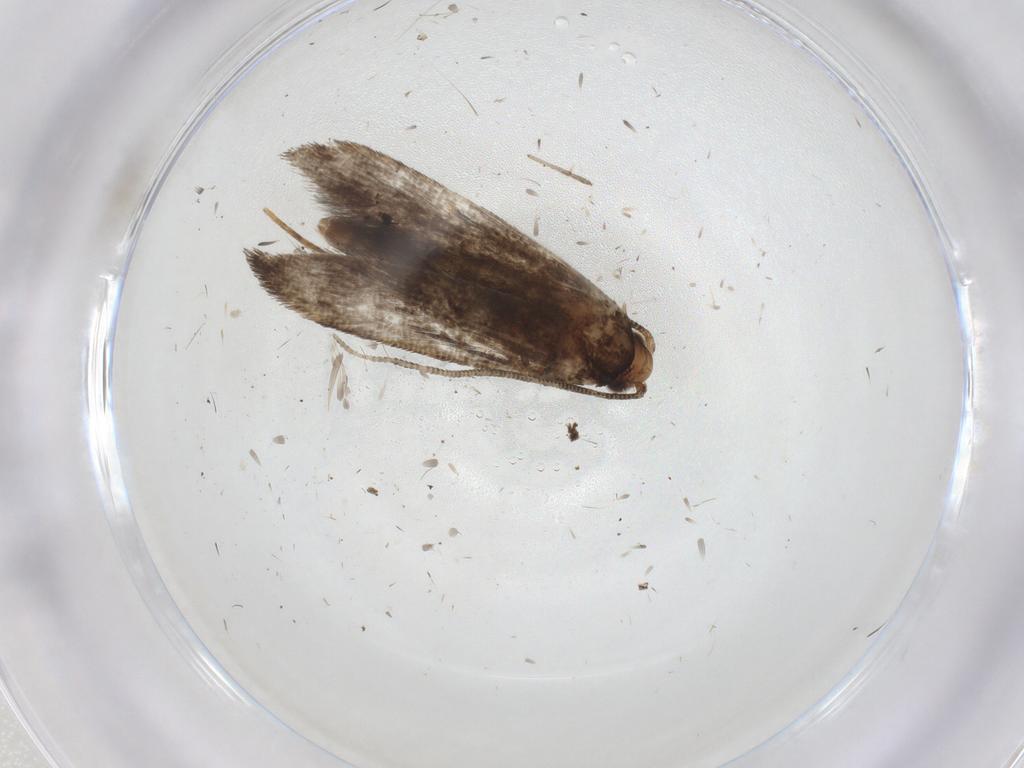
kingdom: Animalia
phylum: Arthropoda
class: Insecta
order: Lepidoptera
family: Tineidae
